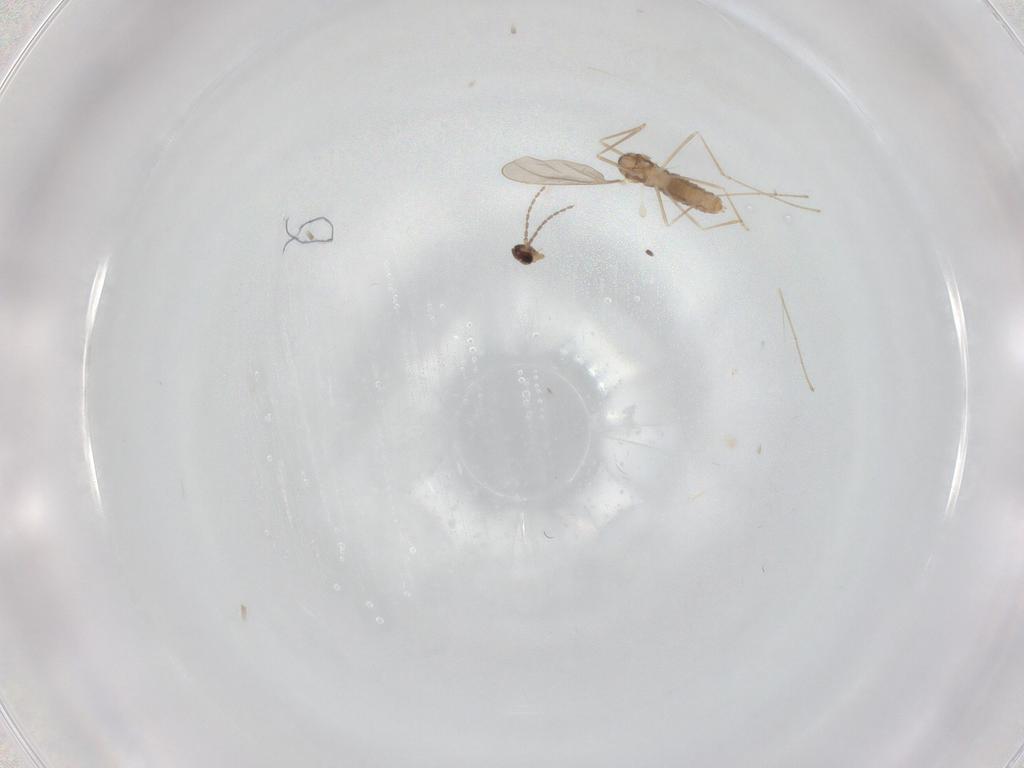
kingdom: Animalia
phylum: Arthropoda
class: Insecta
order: Diptera
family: Cecidomyiidae
